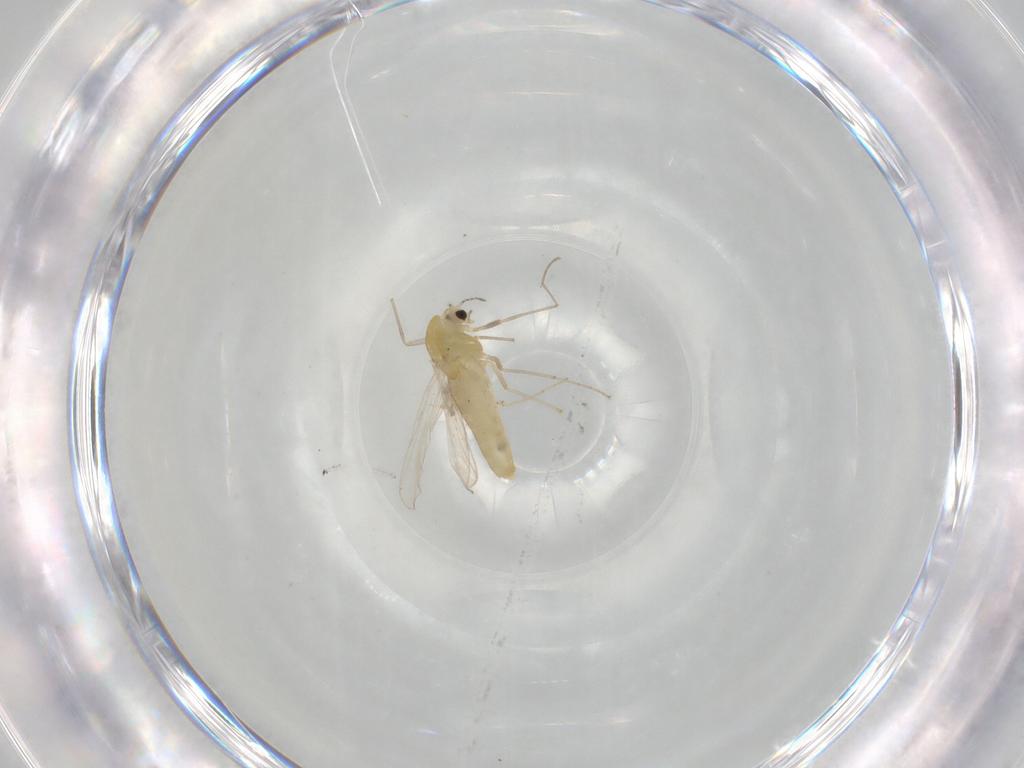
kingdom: Animalia
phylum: Arthropoda
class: Insecta
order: Diptera
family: Chironomidae
